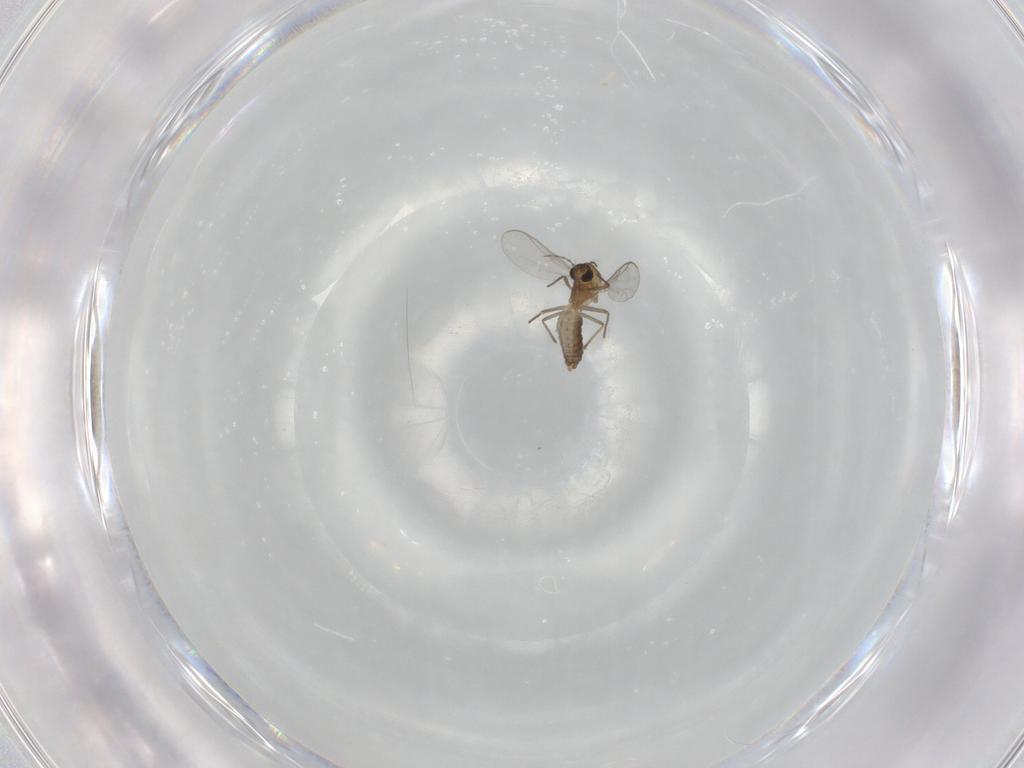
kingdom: Animalia
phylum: Arthropoda
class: Insecta
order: Diptera
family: Chironomidae
